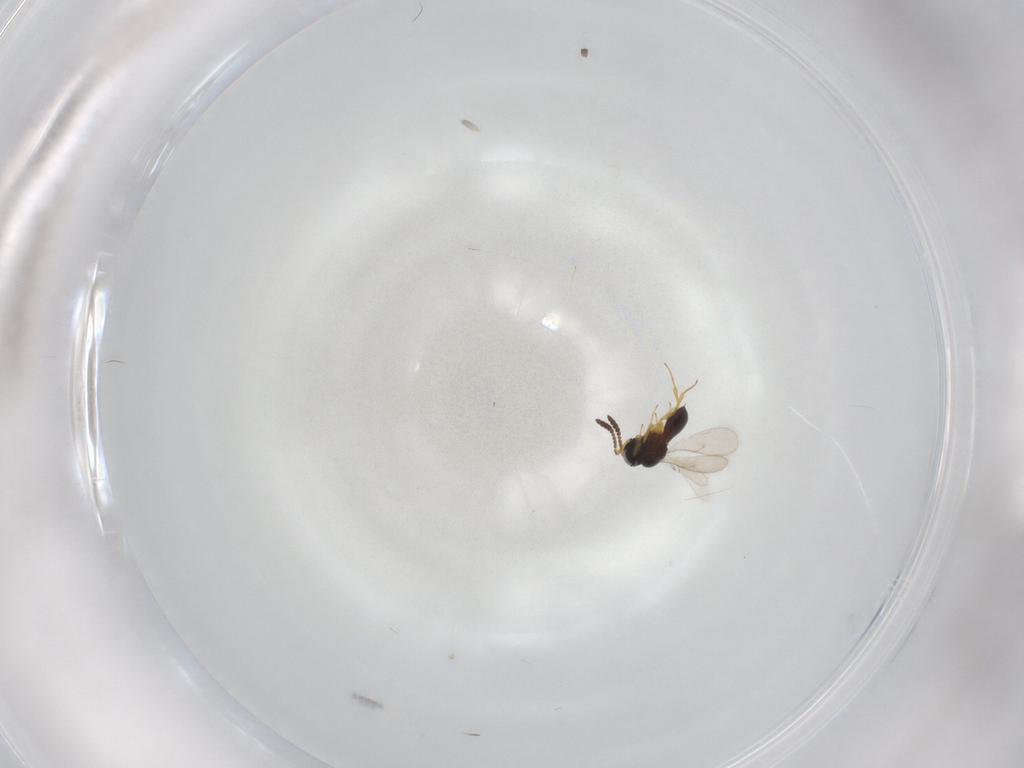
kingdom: Animalia
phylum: Arthropoda
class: Insecta
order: Hymenoptera
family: Scelionidae
